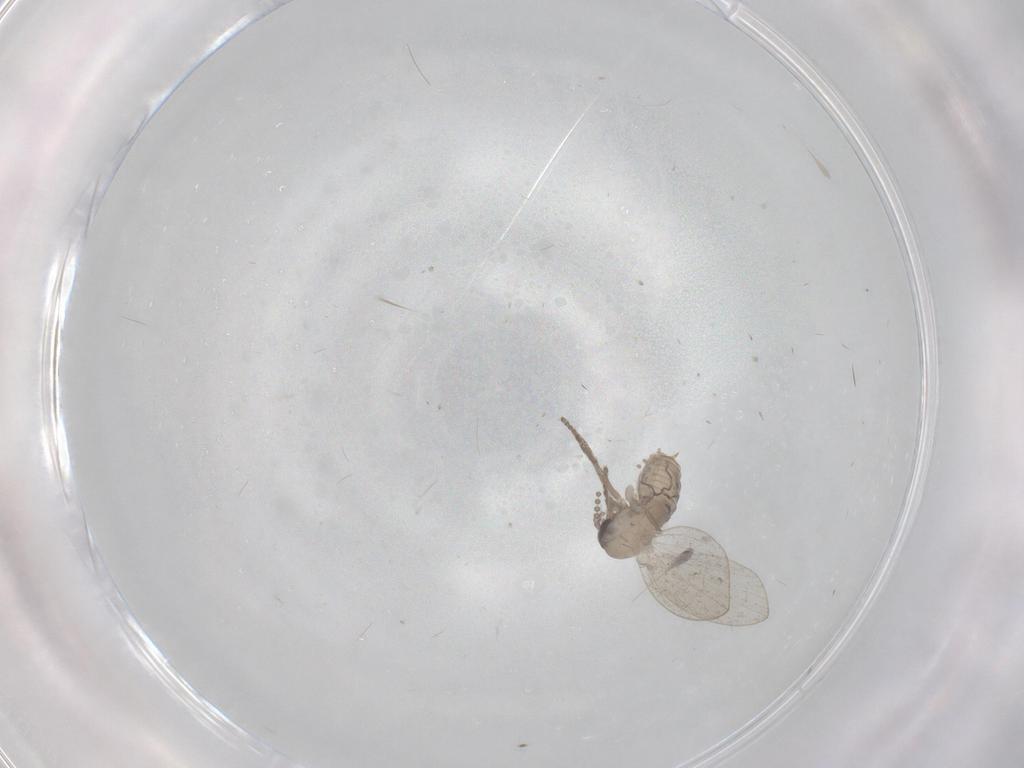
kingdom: Animalia
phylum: Arthropoda
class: Insecta
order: Diptera
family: Psychodidae
